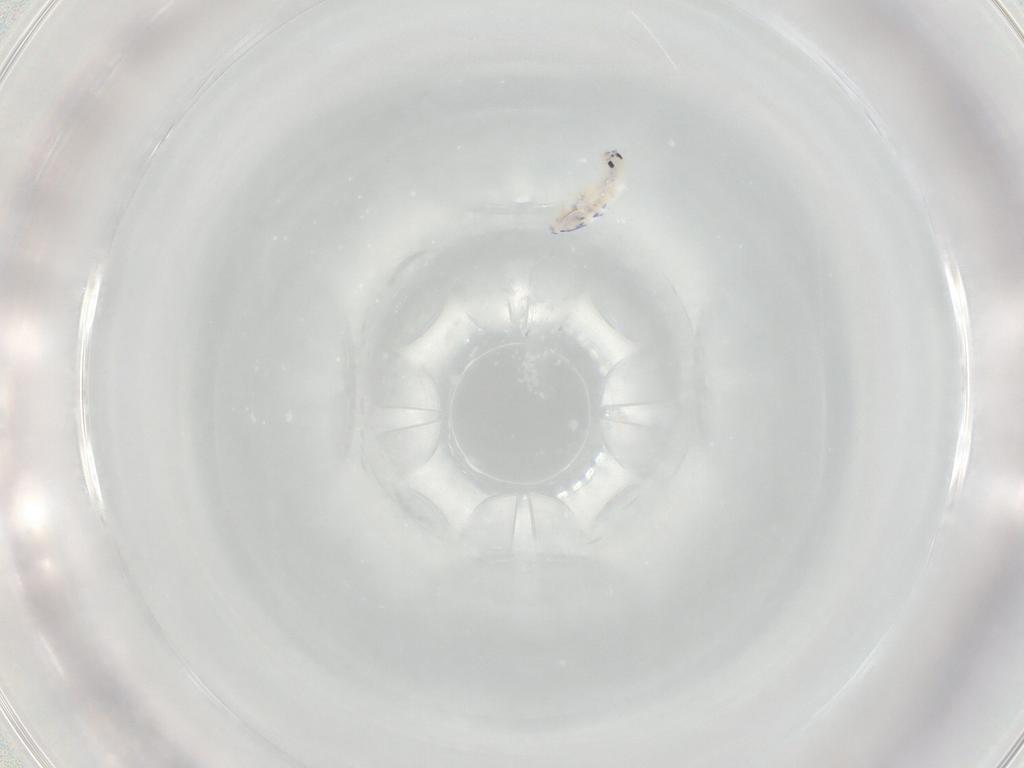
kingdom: Animalia
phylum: Arthropoda
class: Collembola
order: Entomobryomorpha
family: Entomobryidae
